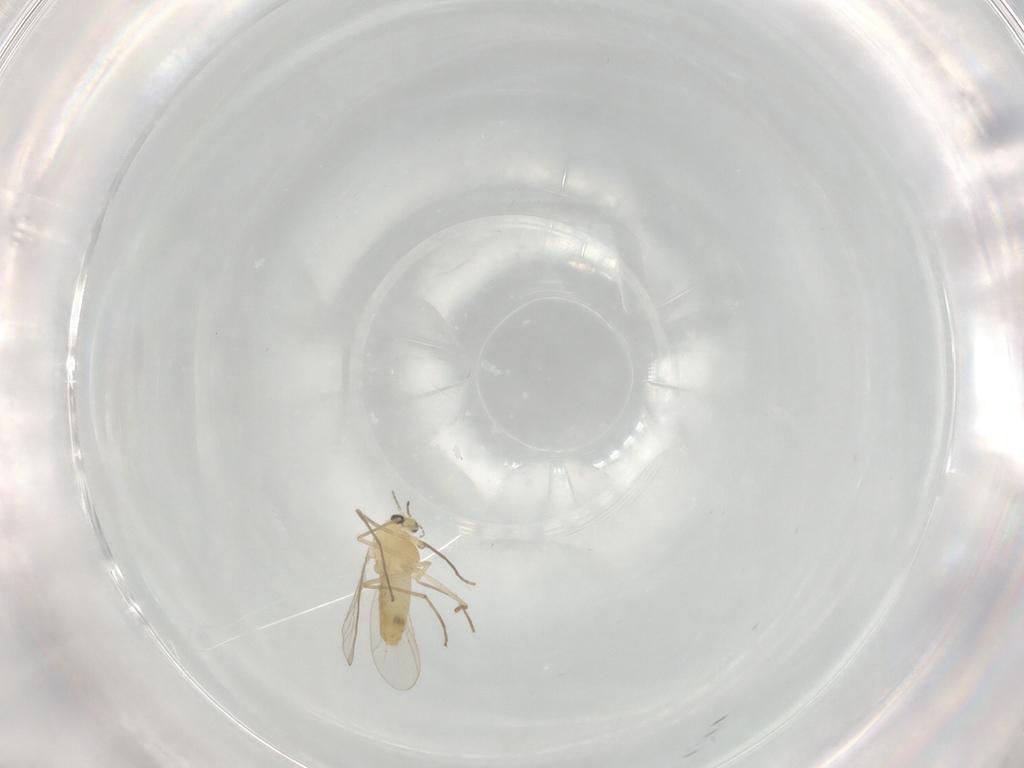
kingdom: Animalia
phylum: Arthropoda
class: Insecta
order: Diptera
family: Chironomidae
